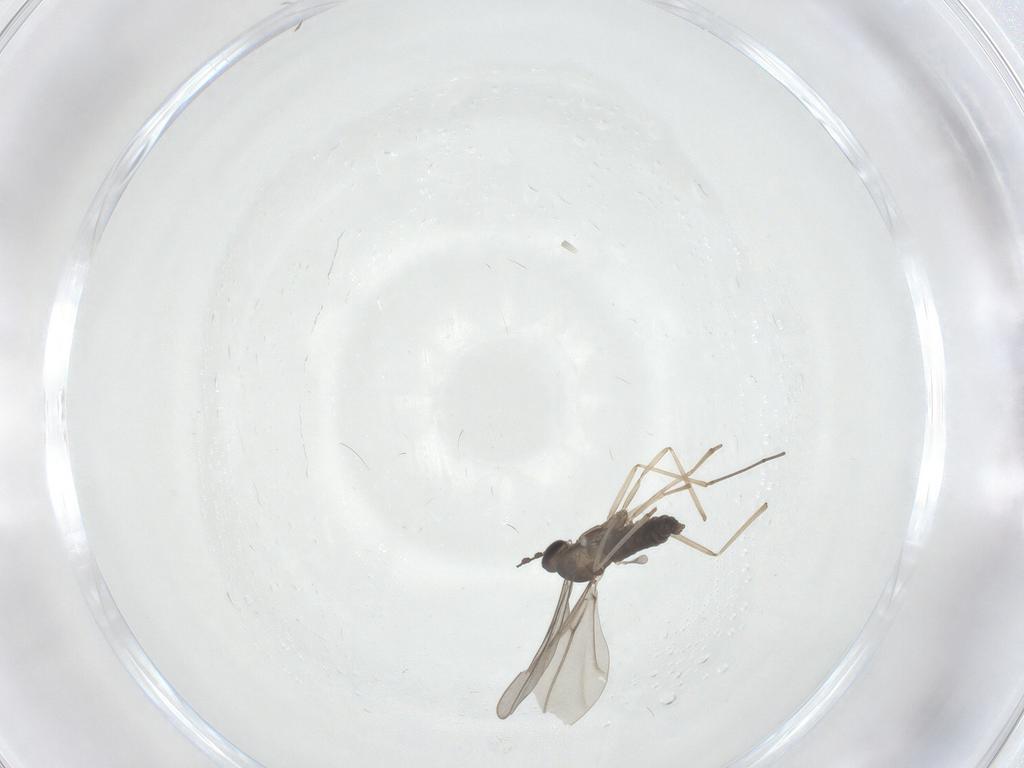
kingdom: Animalia
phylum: Arthropoda
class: Insecta
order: Diptera
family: Cecidomyiidae
